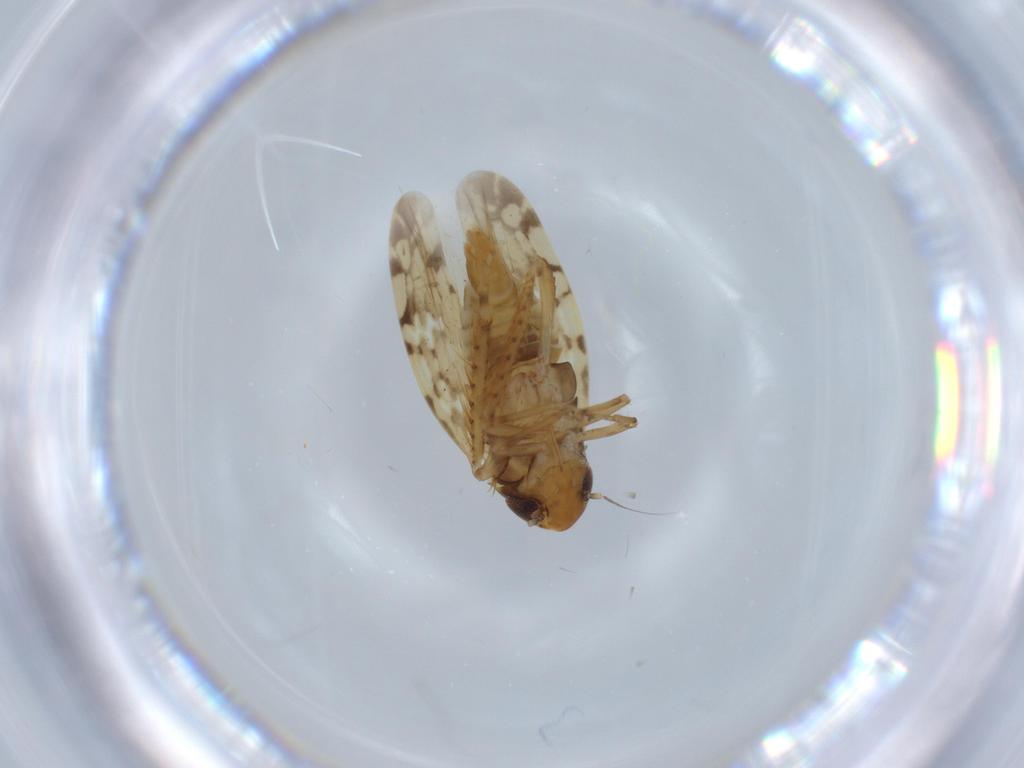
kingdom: Animalia
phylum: Arthropoda
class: Insecta
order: Hemiptera
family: Cicadellidae
